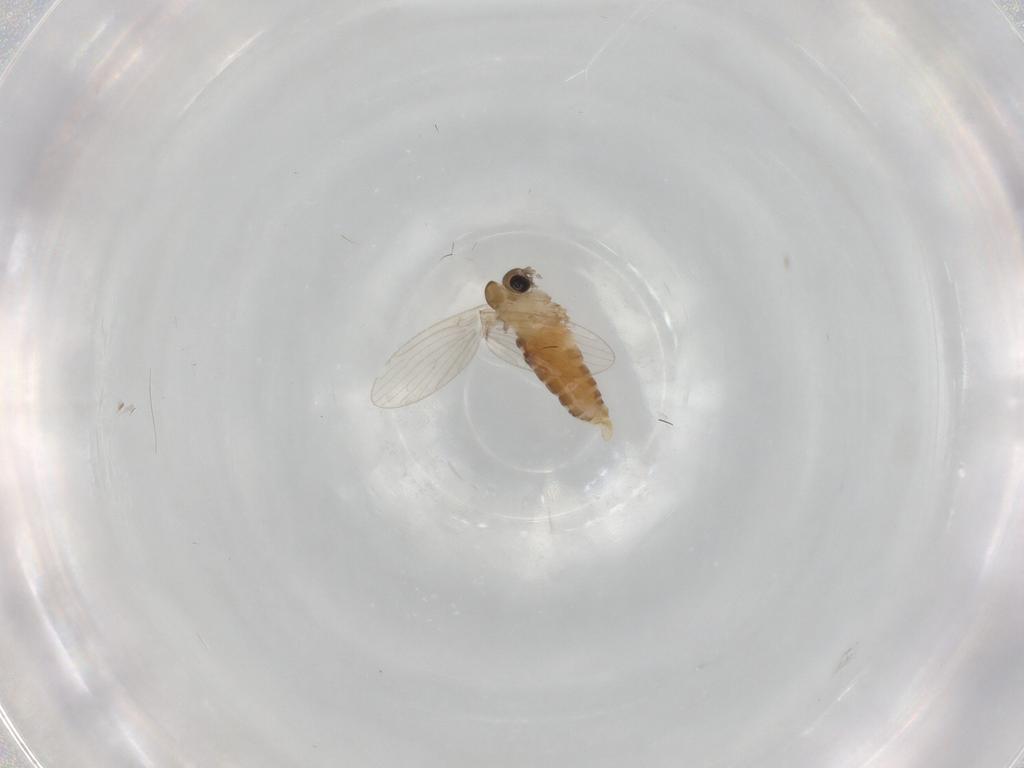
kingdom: Animalia
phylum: Arthropoda
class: Insecta
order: Diptera
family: Psychodidae
